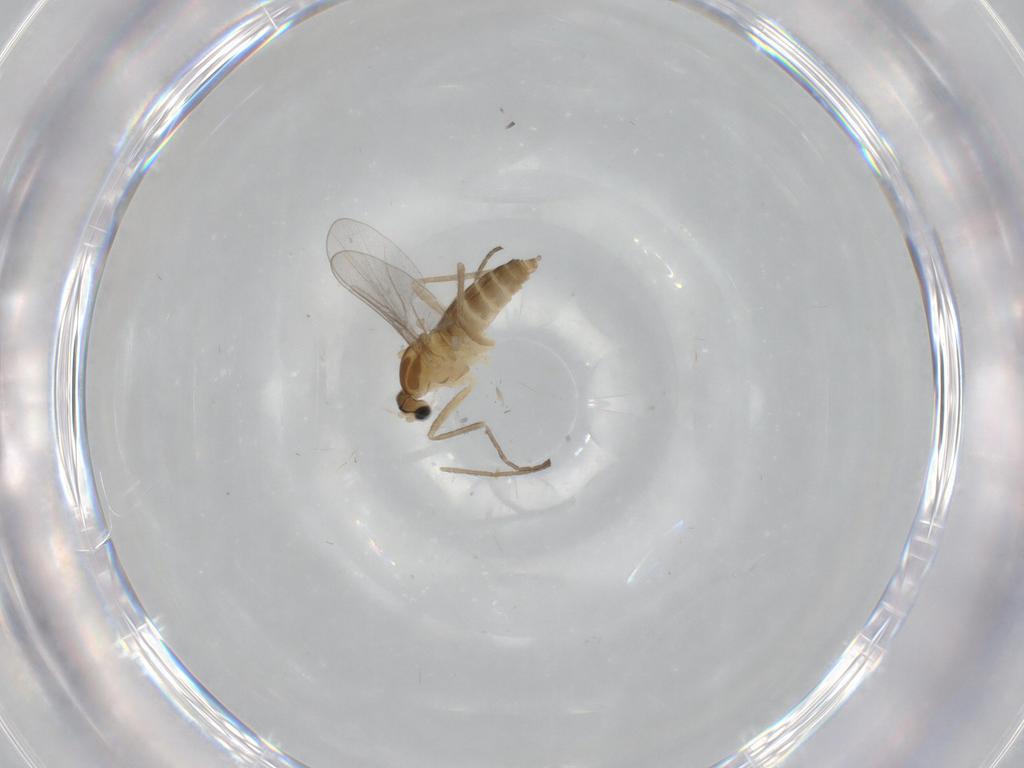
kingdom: Animalia
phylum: Arthropoda
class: Insecta
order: Diptera
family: Cecidomyiidae
